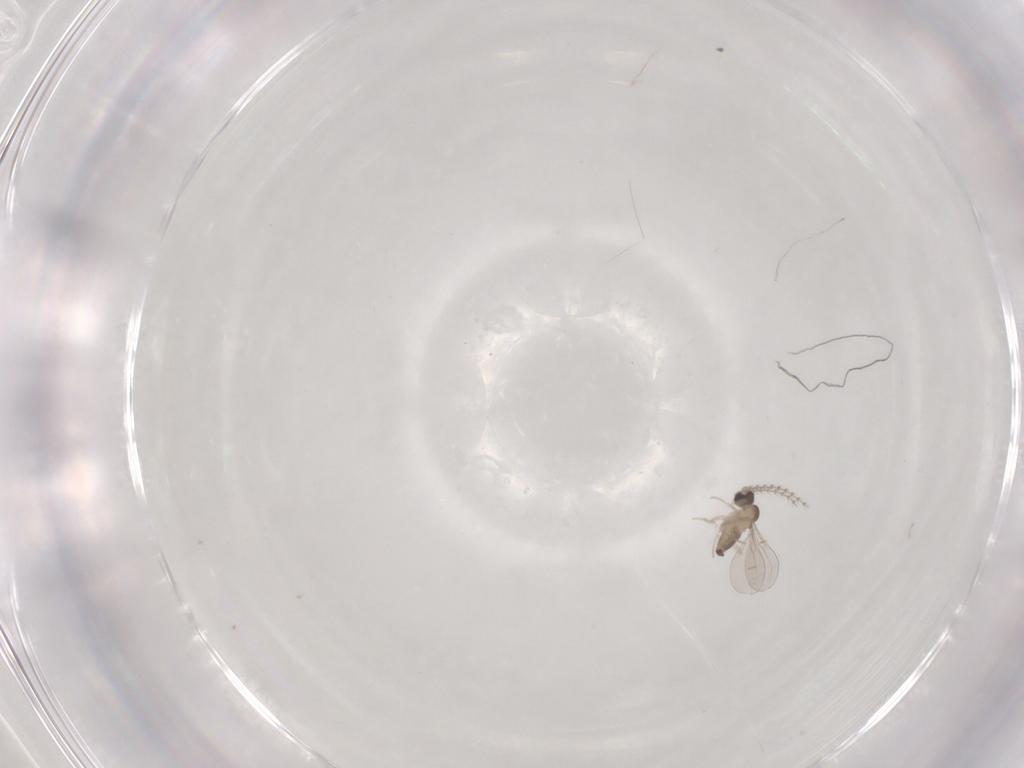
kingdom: Animalia
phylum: Arthropoda
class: Insecta
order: Diptera
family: Cecidomyiidae
